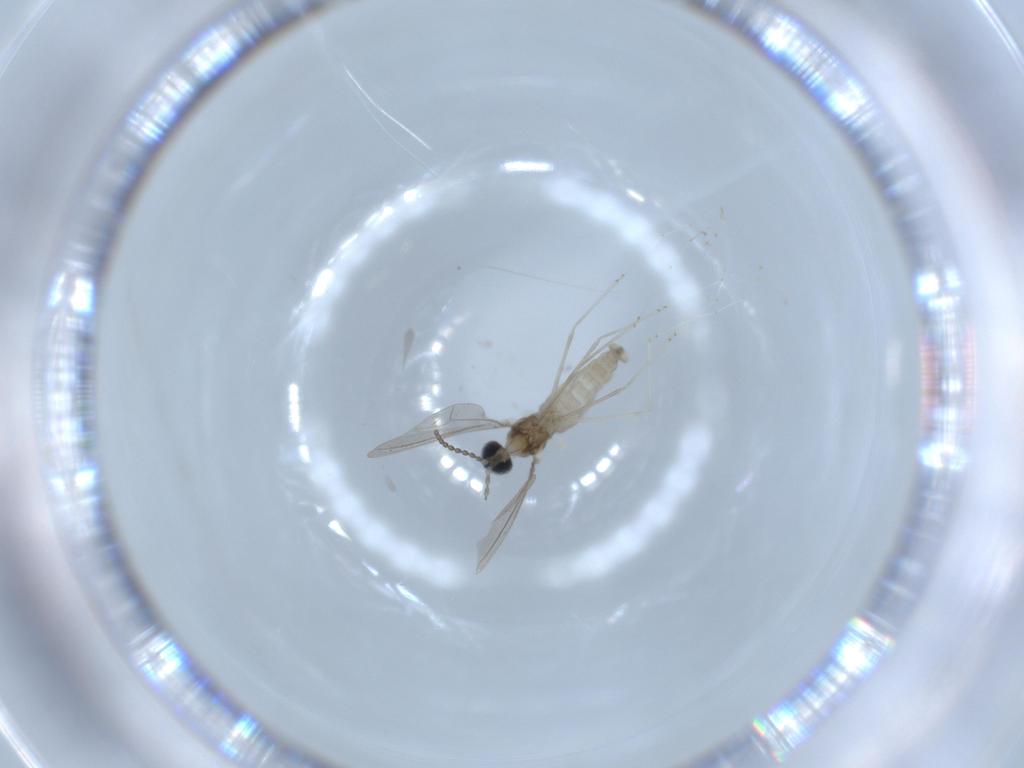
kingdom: Animalia
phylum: Arthropoda
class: Insecta
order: Diptera
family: Cecidomyiidae
